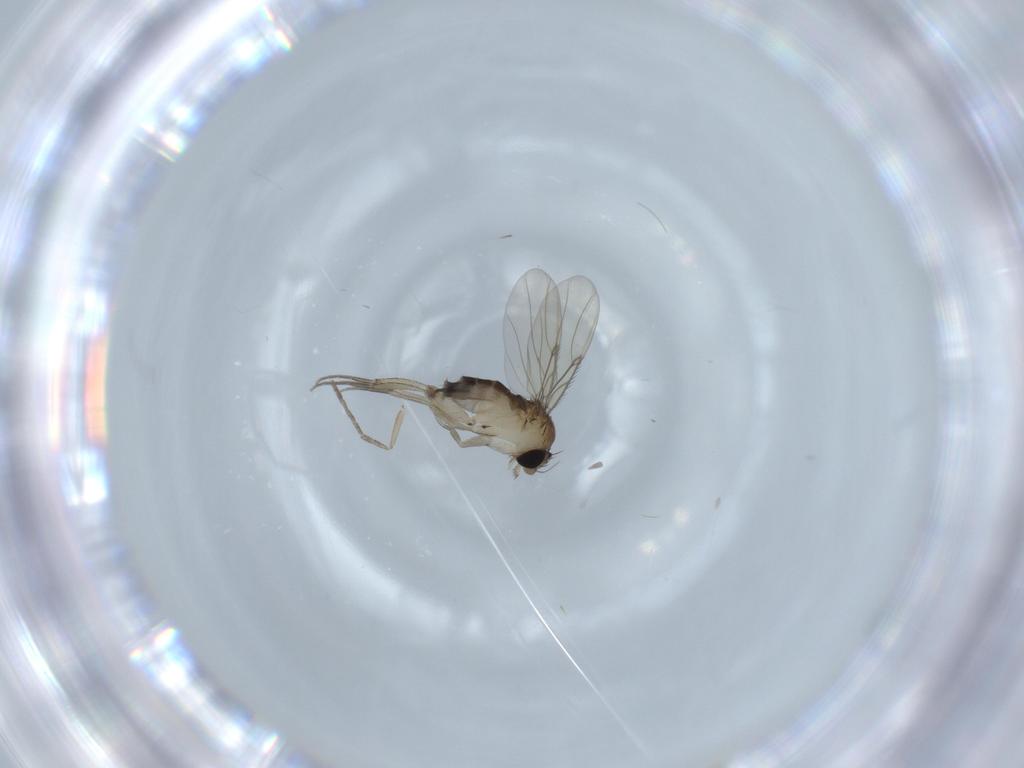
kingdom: Animalia
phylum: Arthropoda
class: Insecta
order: Diptera
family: Phoridae
